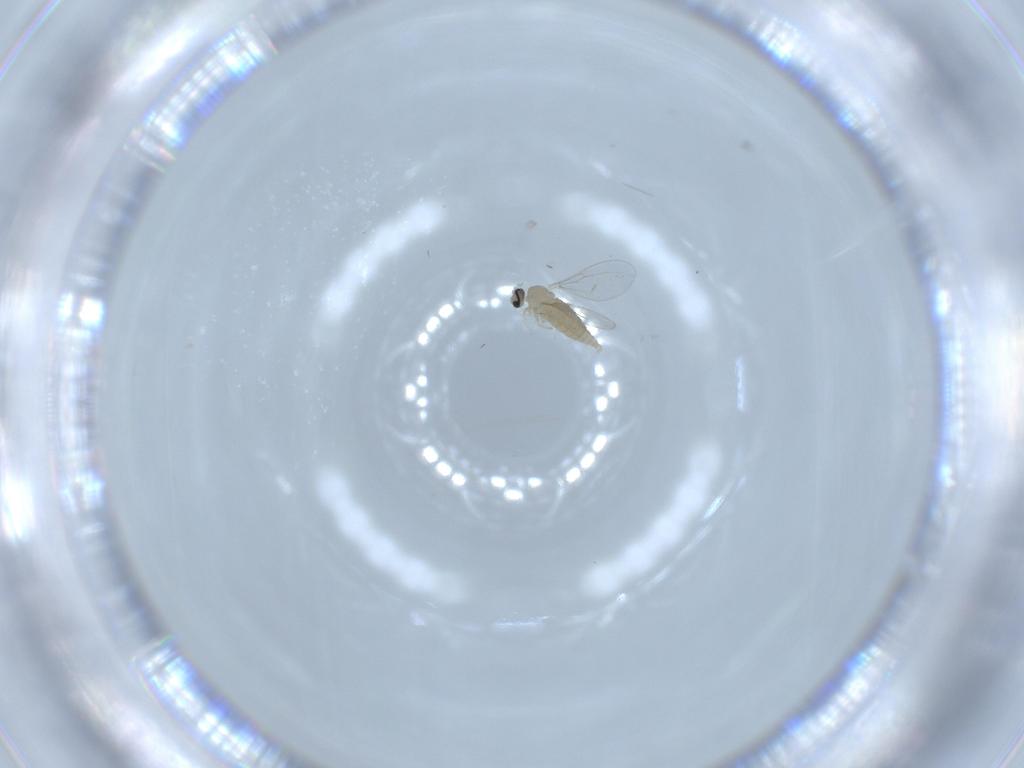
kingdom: Animalia
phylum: Arthropoda
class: Insecta
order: Diptera
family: Cecidomyiidae
